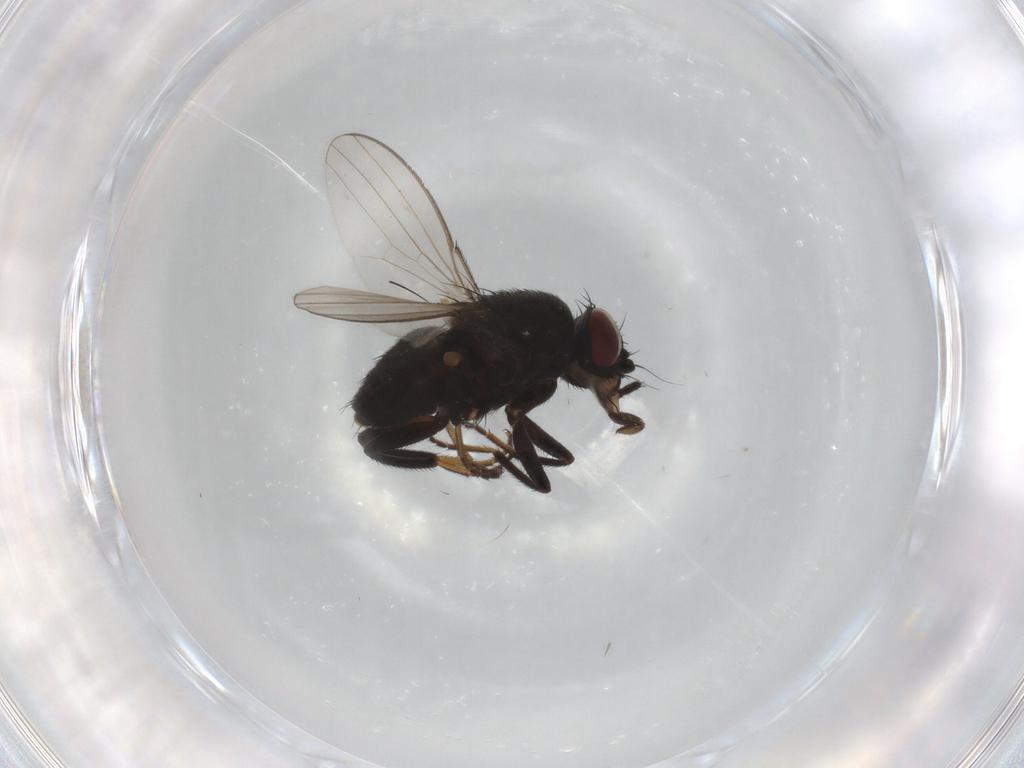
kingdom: Animalia
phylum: Arthropoda
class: Insecta
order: Diptera
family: Milichiidae
